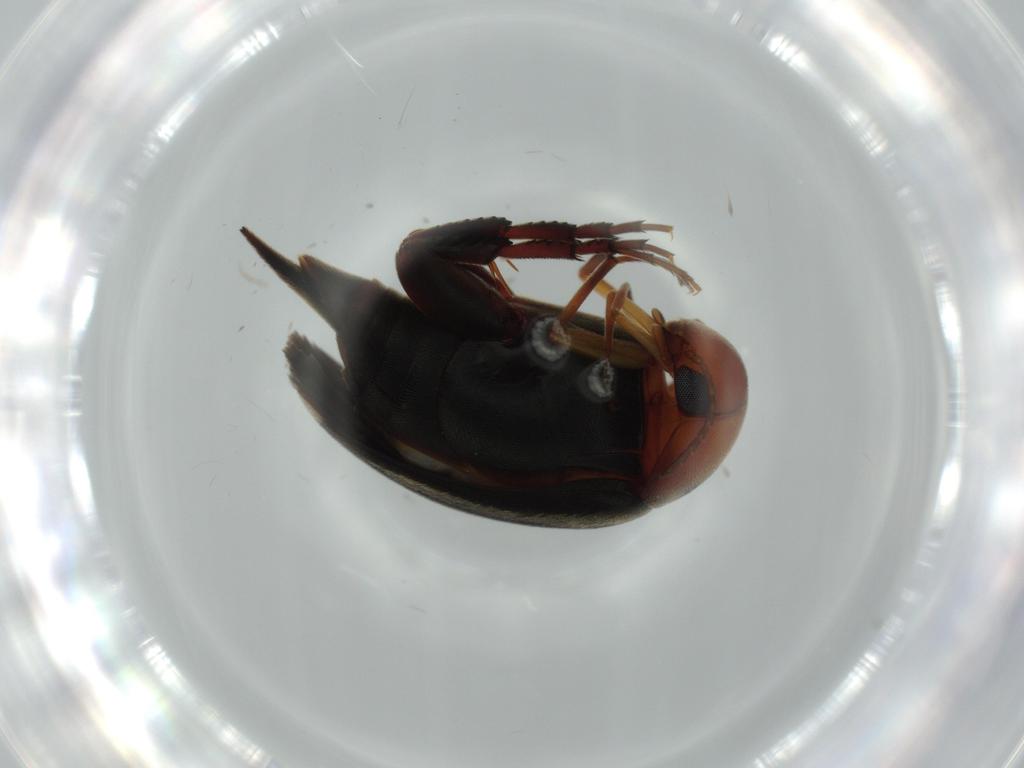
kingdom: Animalia
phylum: Arthropoda
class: Insecta
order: Coleoptera
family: Mordellidae
